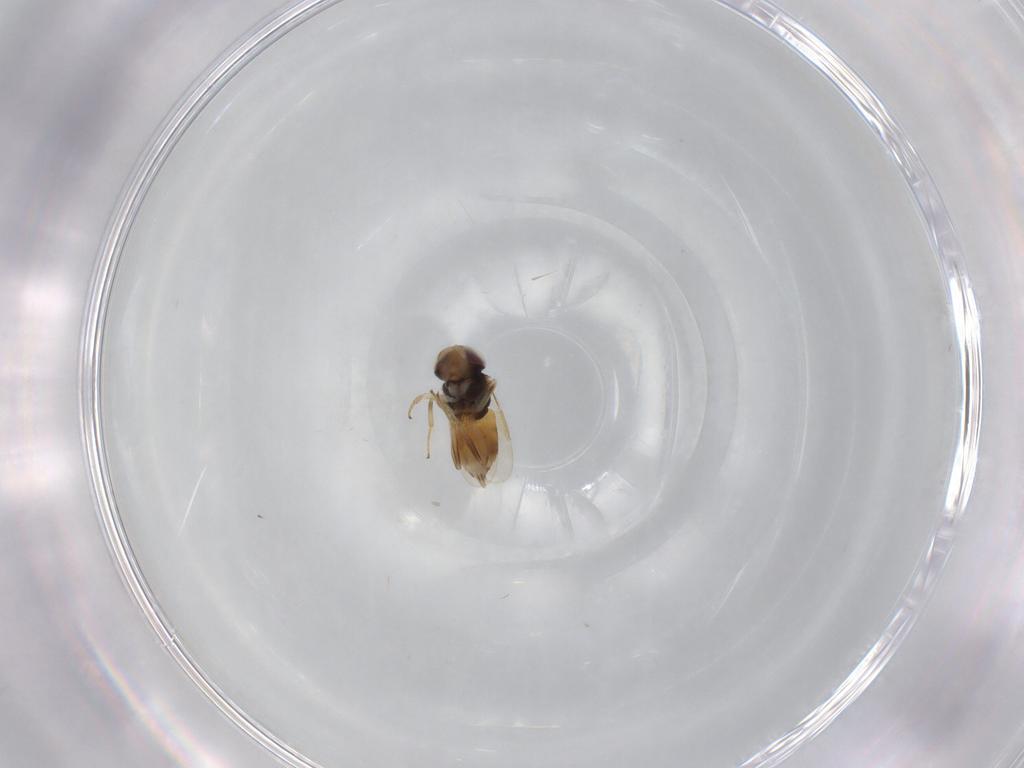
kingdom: Animalia
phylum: Arthropoda
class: Insecta
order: Hymenoptera
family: Aphelinidae
